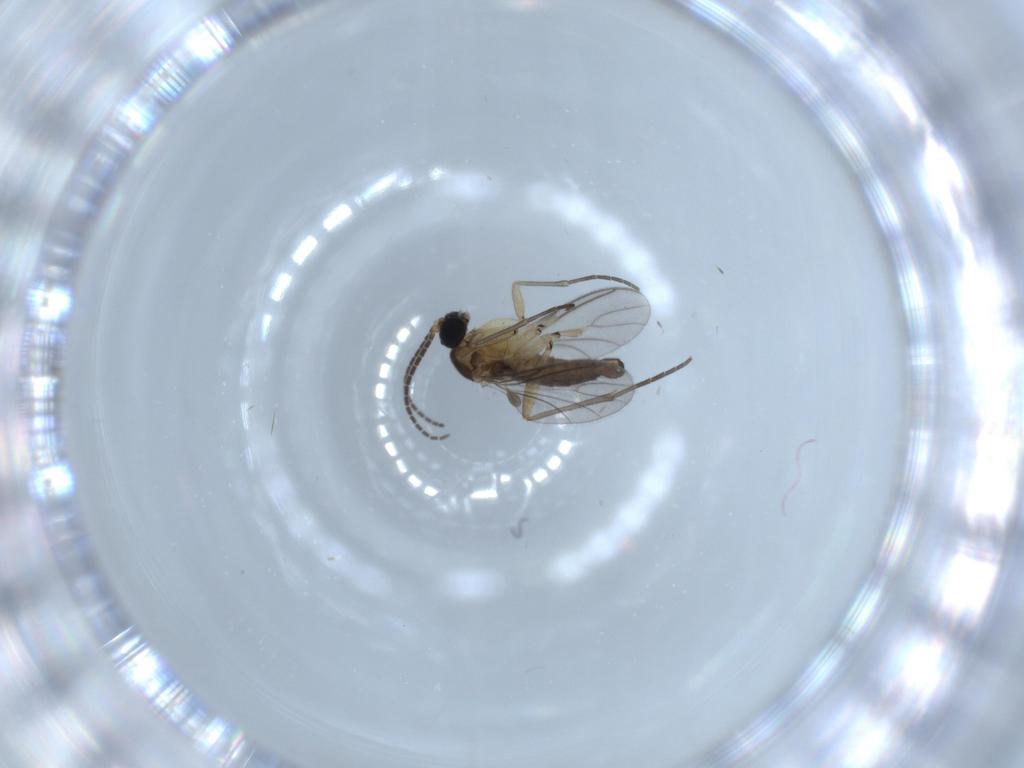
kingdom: Animalia
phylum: Arthropoda
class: Insecta
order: Diptera
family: Sciaridae
